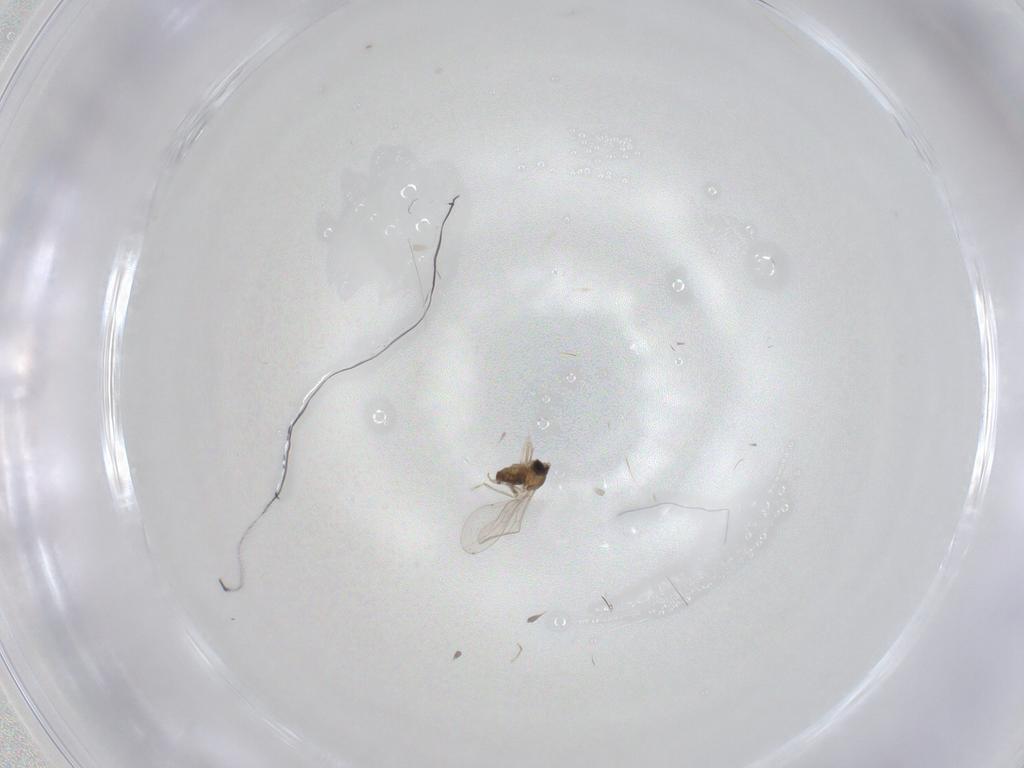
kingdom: Animalia
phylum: Arthropoda
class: Insecta
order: Diptera
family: Cecidomyiidae
